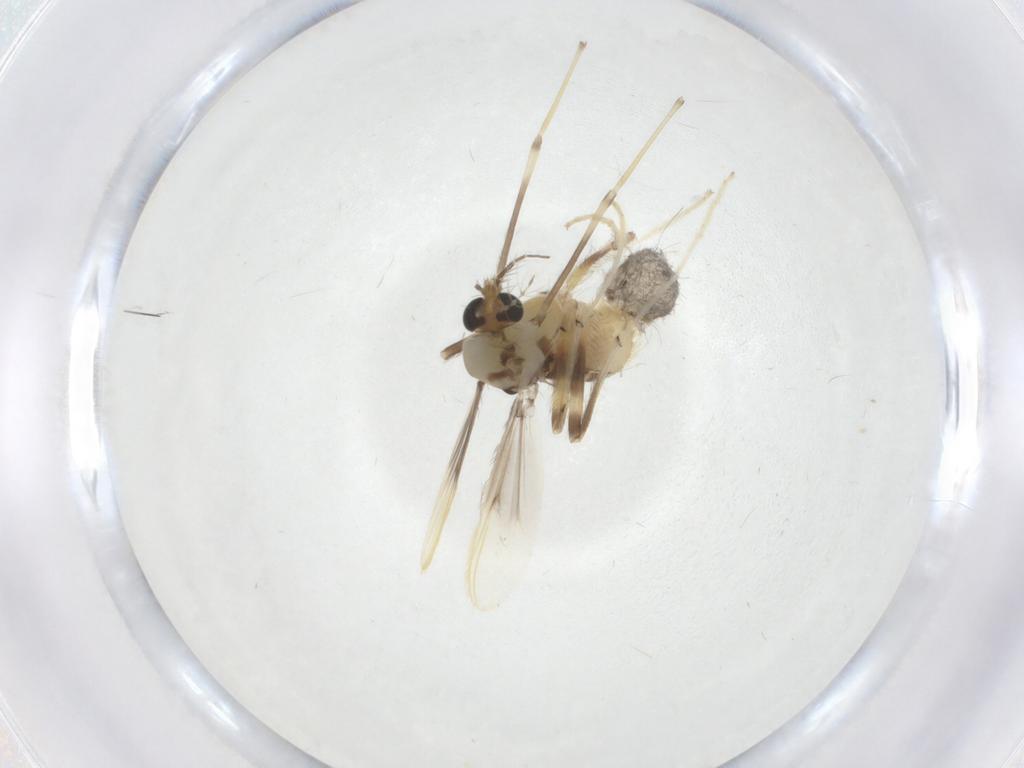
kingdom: Animalia
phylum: Arthropoda
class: Insecta
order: Diptera
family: Chironomidae
